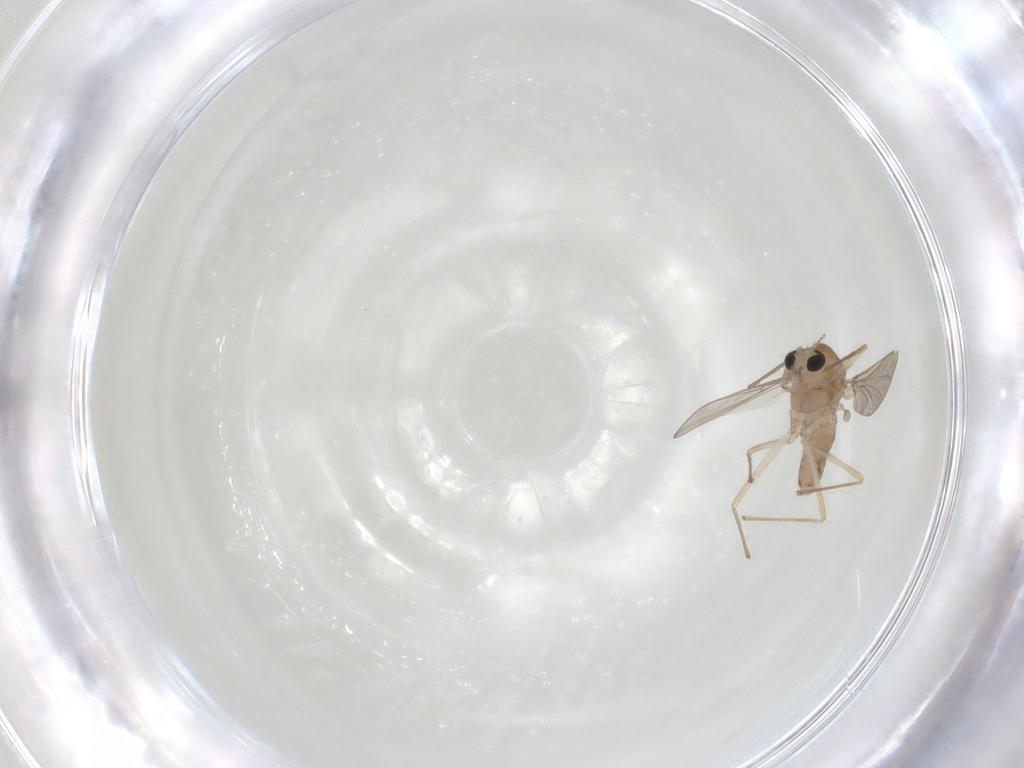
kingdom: Animalia
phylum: Arthropoda
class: Insecta
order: Diptera
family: Chironomidae
